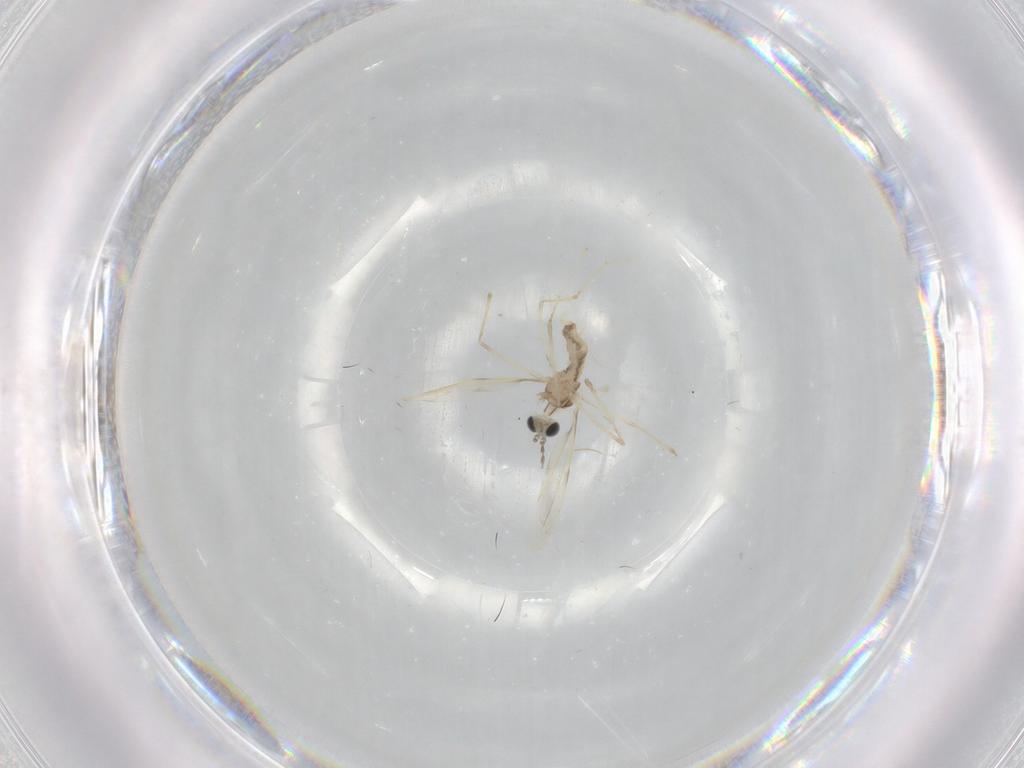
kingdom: Animalia
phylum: Arthropoda
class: Insecta
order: Diptera
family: Cecidomyiidae
